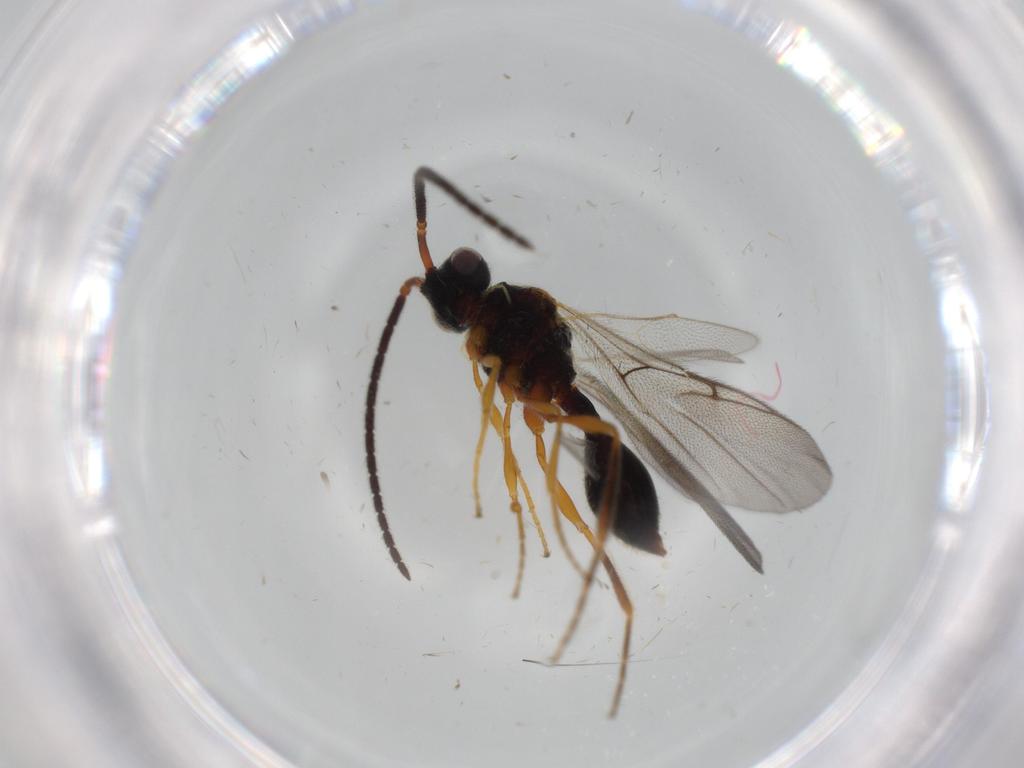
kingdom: Animalia
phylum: Arthropoda
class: Insecta
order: Hymenoptera
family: Diapriidae
